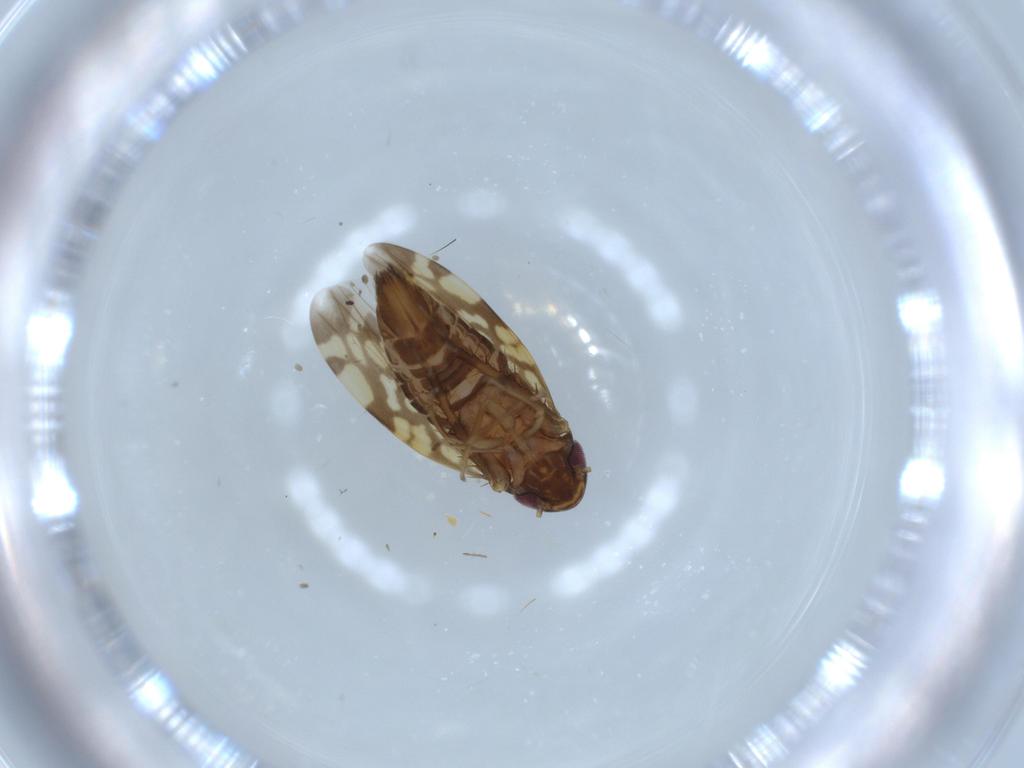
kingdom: Animalia
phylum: Arthropoda
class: Insecta
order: Hemiptera
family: Cicadellidae
